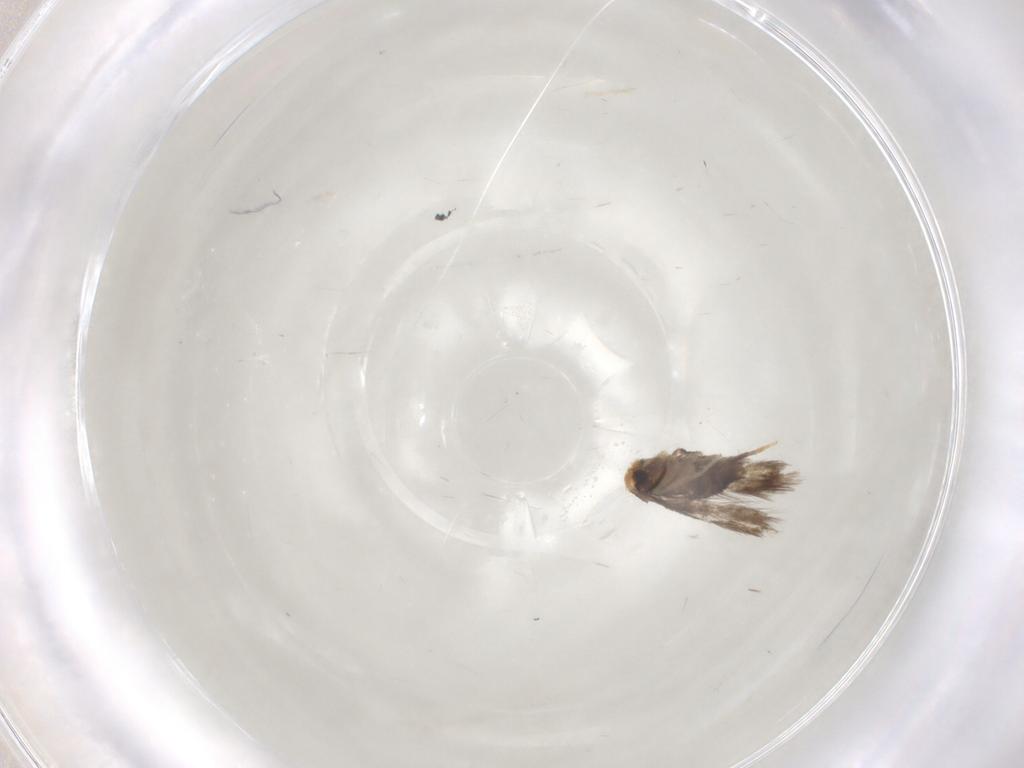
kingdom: Animalia
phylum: Arthropoda
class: Insecta
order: Lepidoptera
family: Nepticulidae
